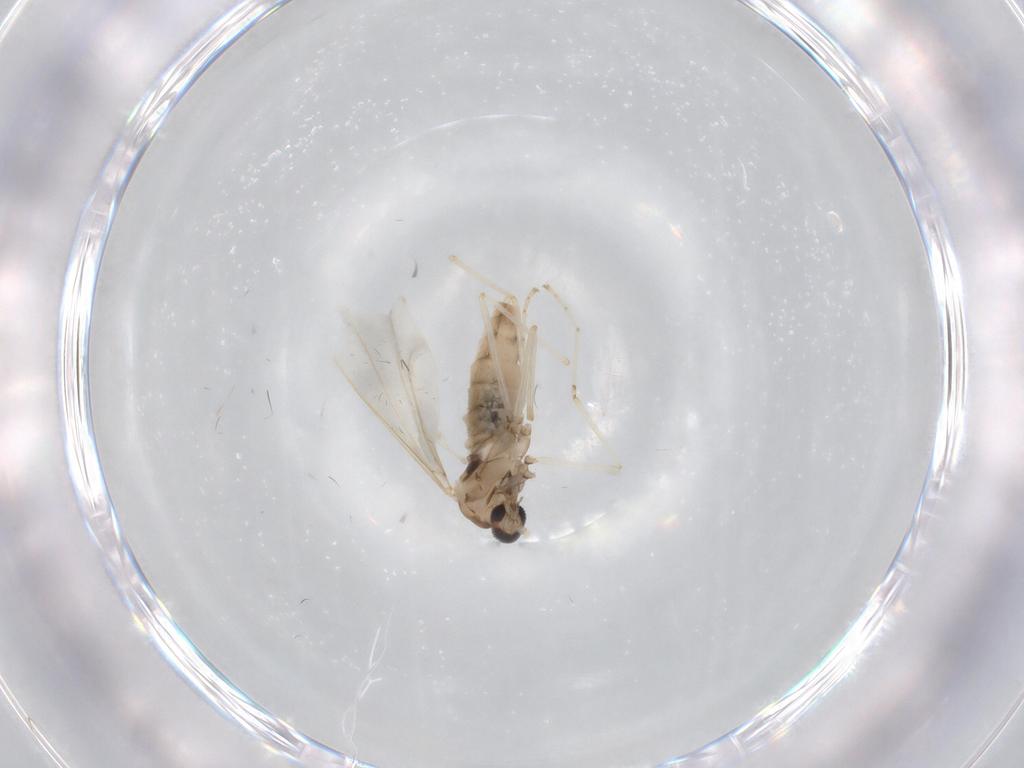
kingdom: Animalia
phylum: Arthropoda
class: Insecta
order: Diptera
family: Cecidomyiidae
